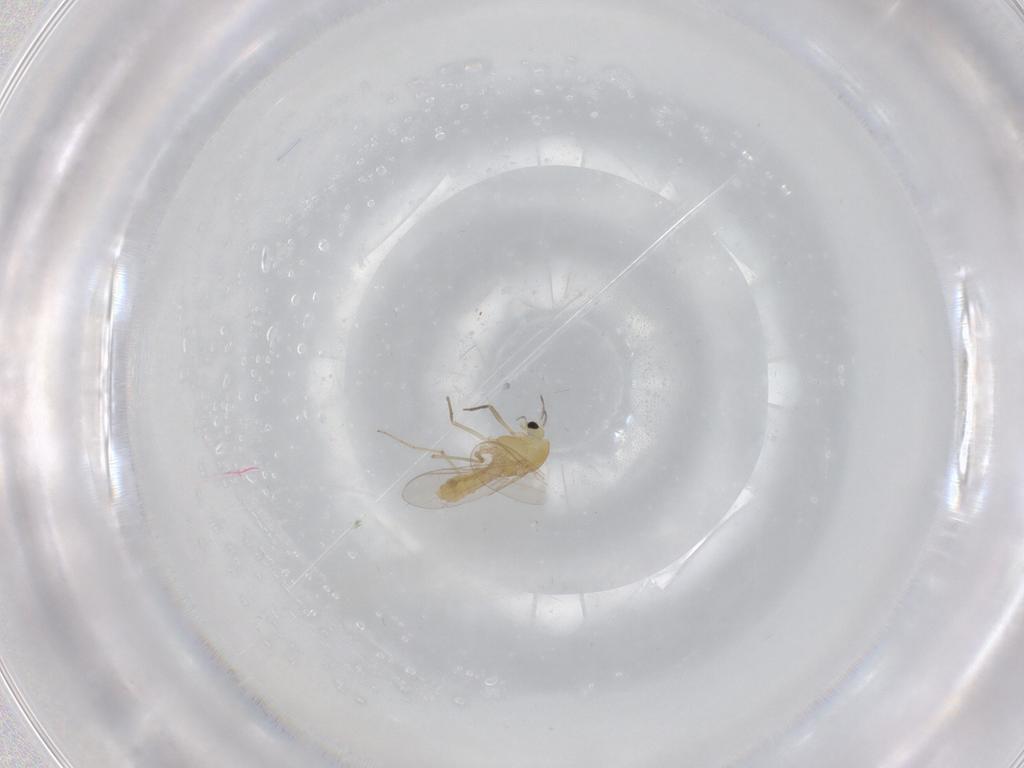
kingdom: Animalia
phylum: Arthropoda
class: Insecta
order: Diptera
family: Chironomidae
